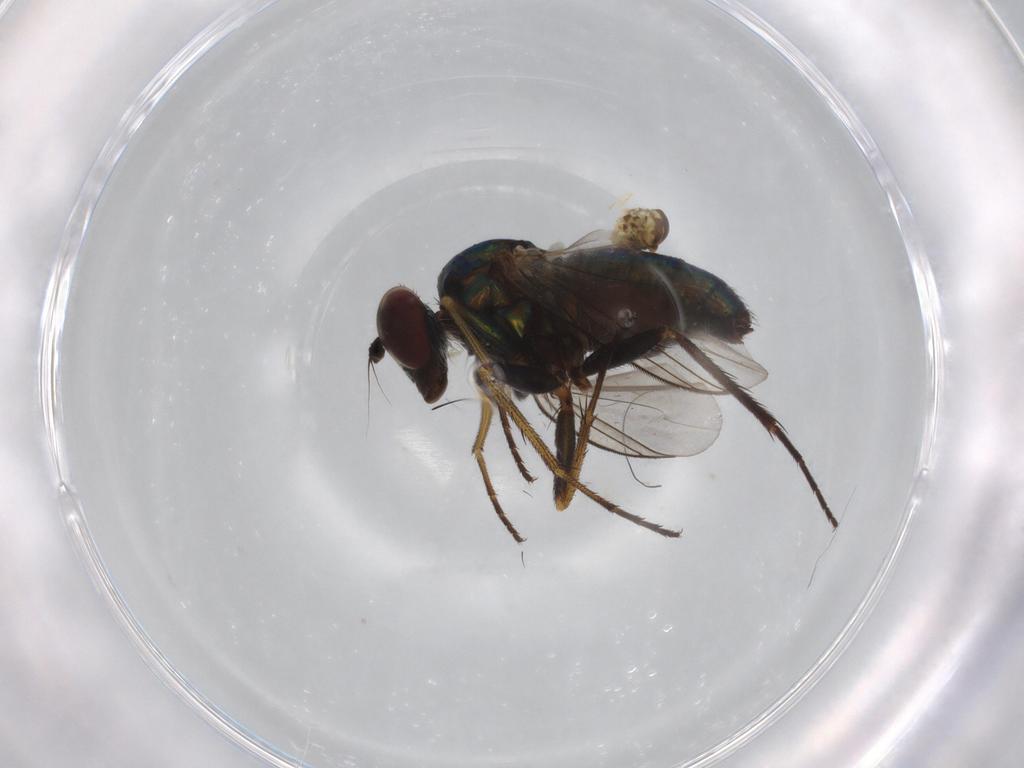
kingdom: Animalia
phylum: Arthropoda
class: Insecta
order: Diptera
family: Dolichopodidae
